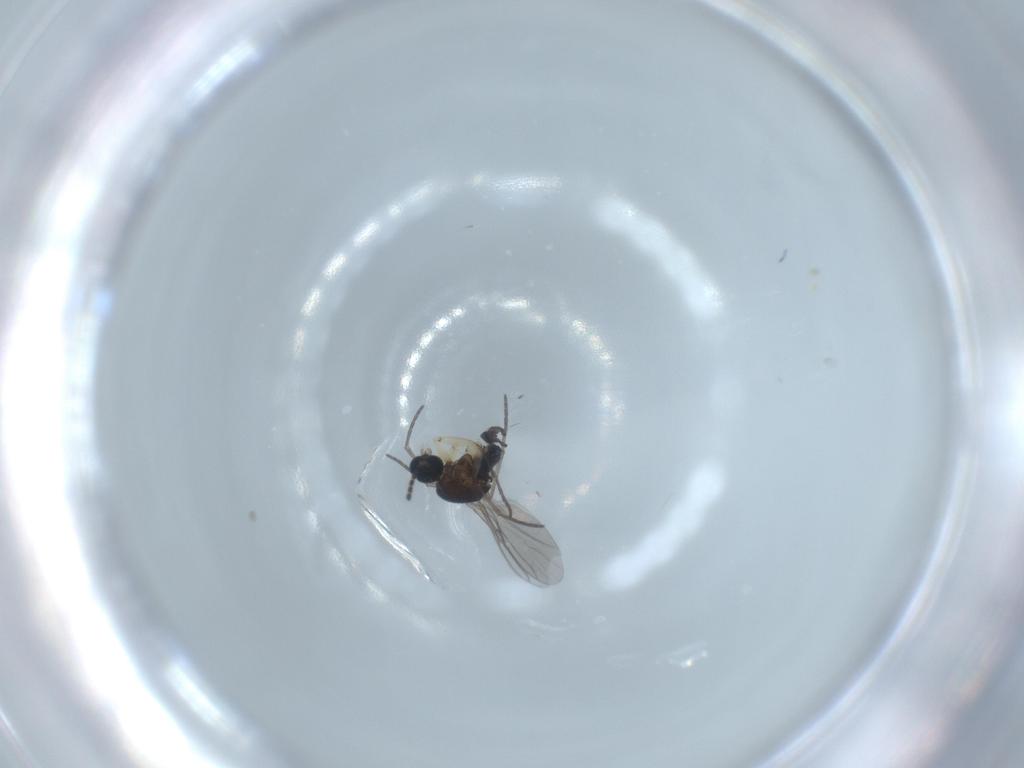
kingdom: Animalia
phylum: Arthropoda
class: Insecta
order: Diptera
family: Sciaridae
